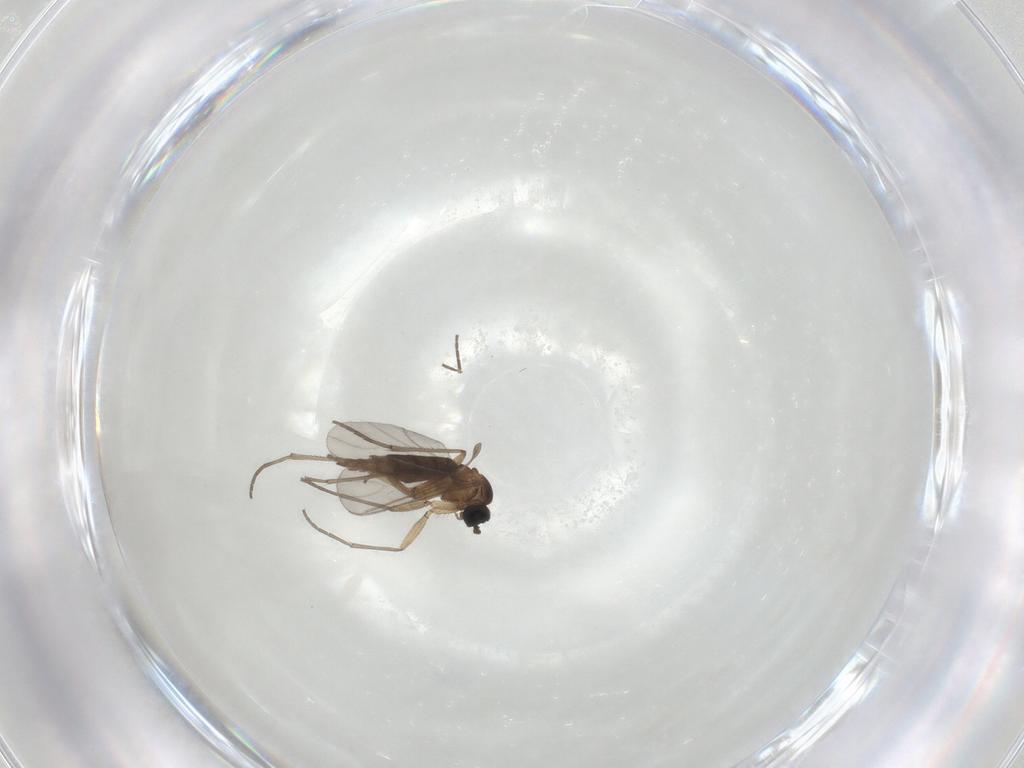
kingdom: Animalia
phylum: Arthropoda
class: Insecta
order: Diptera
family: Sciaridae
